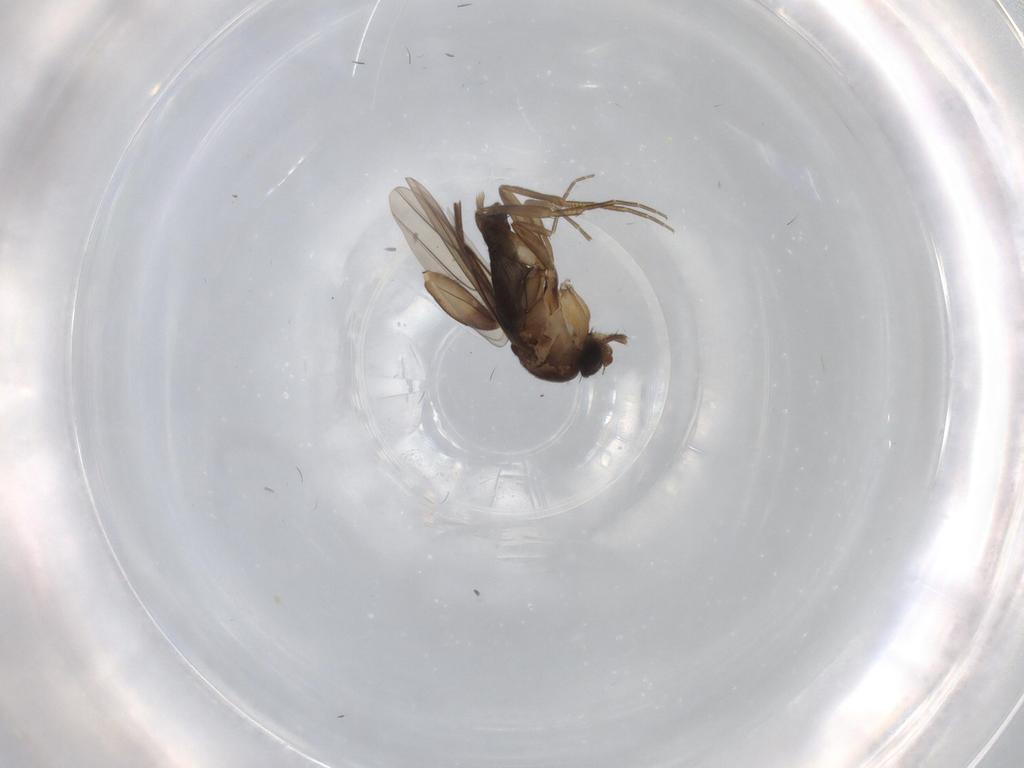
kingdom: Animalia
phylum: Arthropoda
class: Insecta
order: Diptera
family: Phoridae
